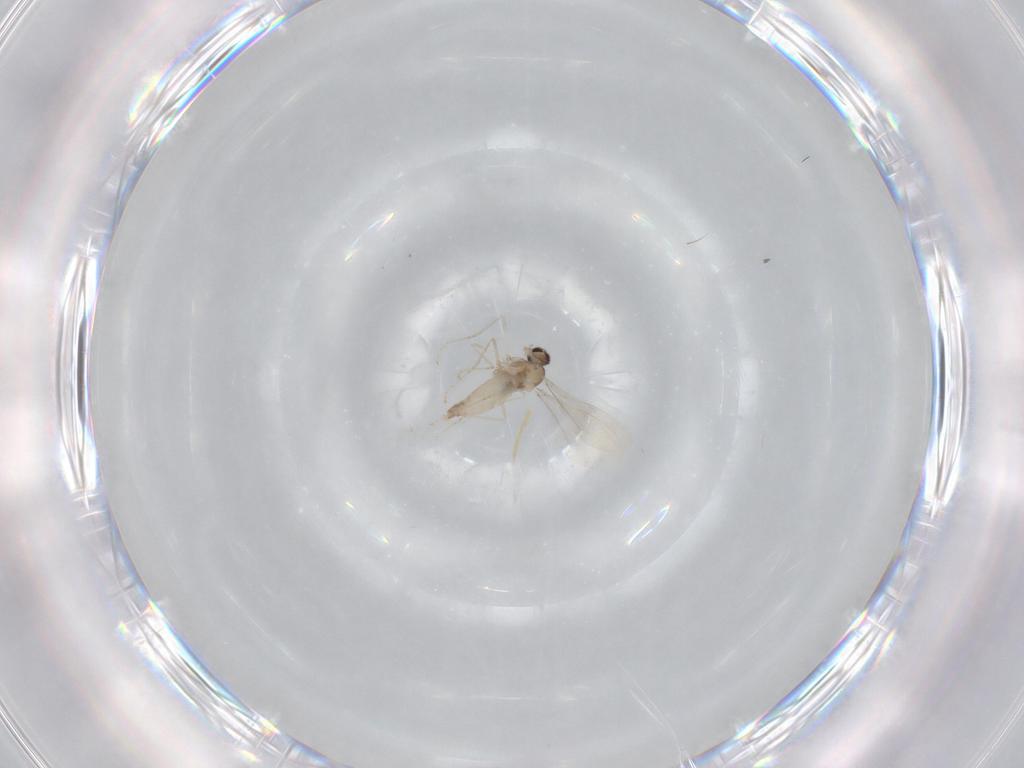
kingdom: Animalia
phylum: Arthropoda
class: Insecta
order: Diptera
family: Cecidomyiidae
